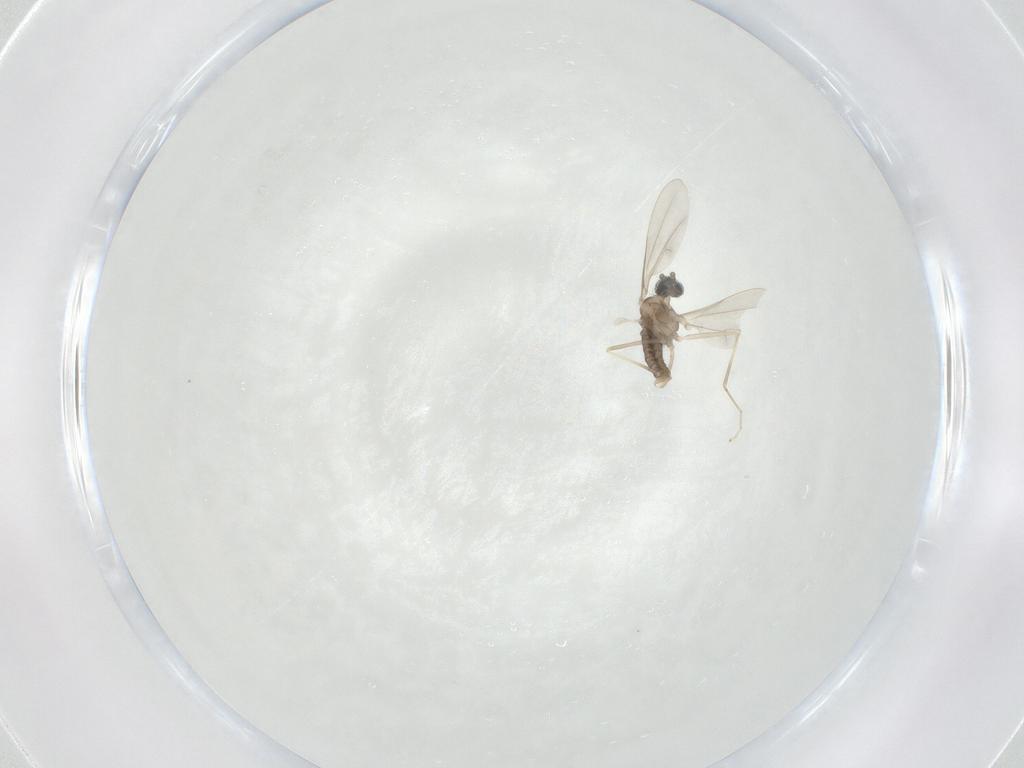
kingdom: Animalia
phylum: Arthropoda
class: Insecta
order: Diptera
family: Cecidomyiidae
